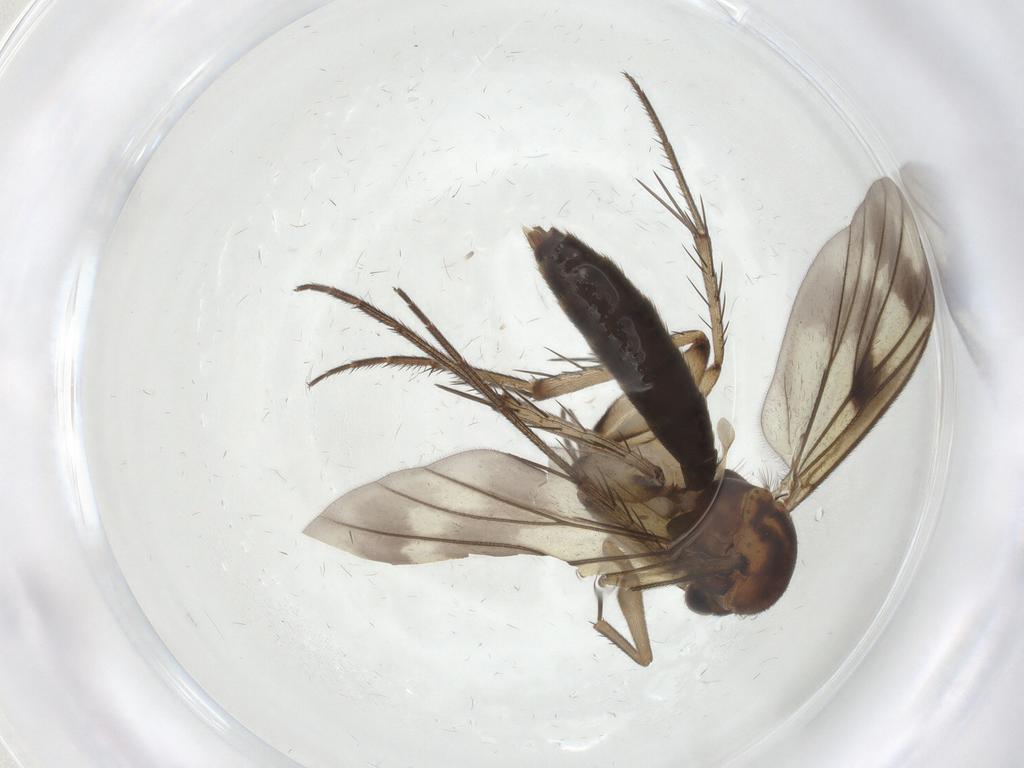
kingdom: Animalia
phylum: Arthropoda
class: Insecta
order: Diptera
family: Mycetophilidae
